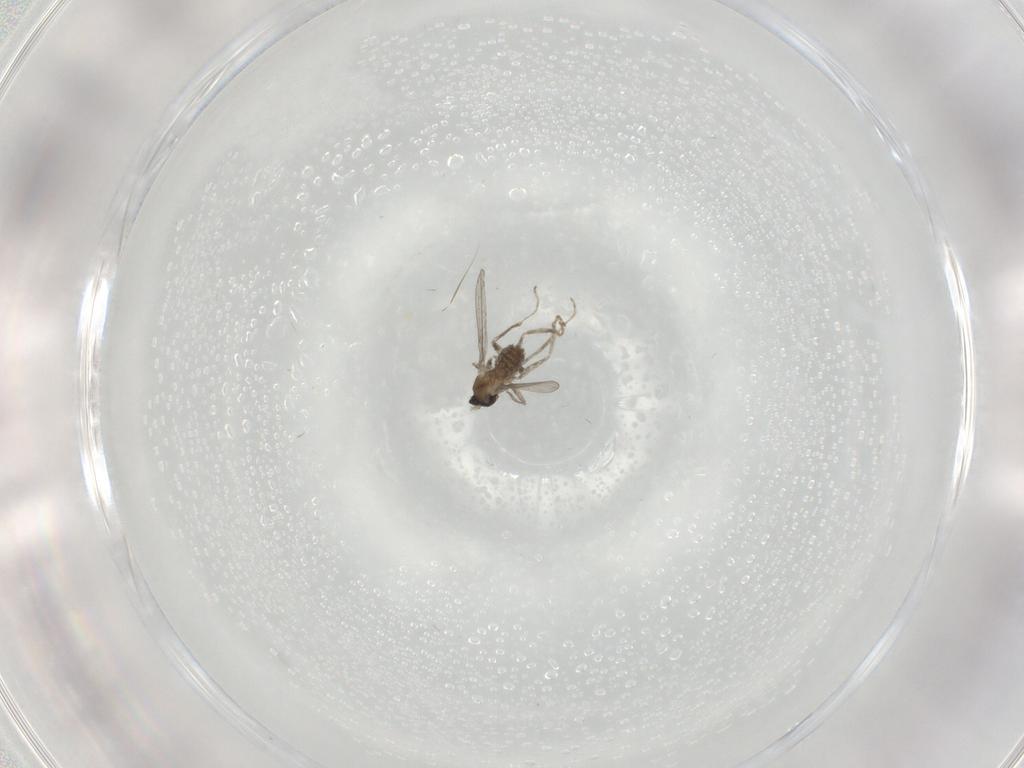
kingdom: Animalia
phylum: Arthropoda
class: Insecta
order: Diptera
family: Cecidomyiidae
